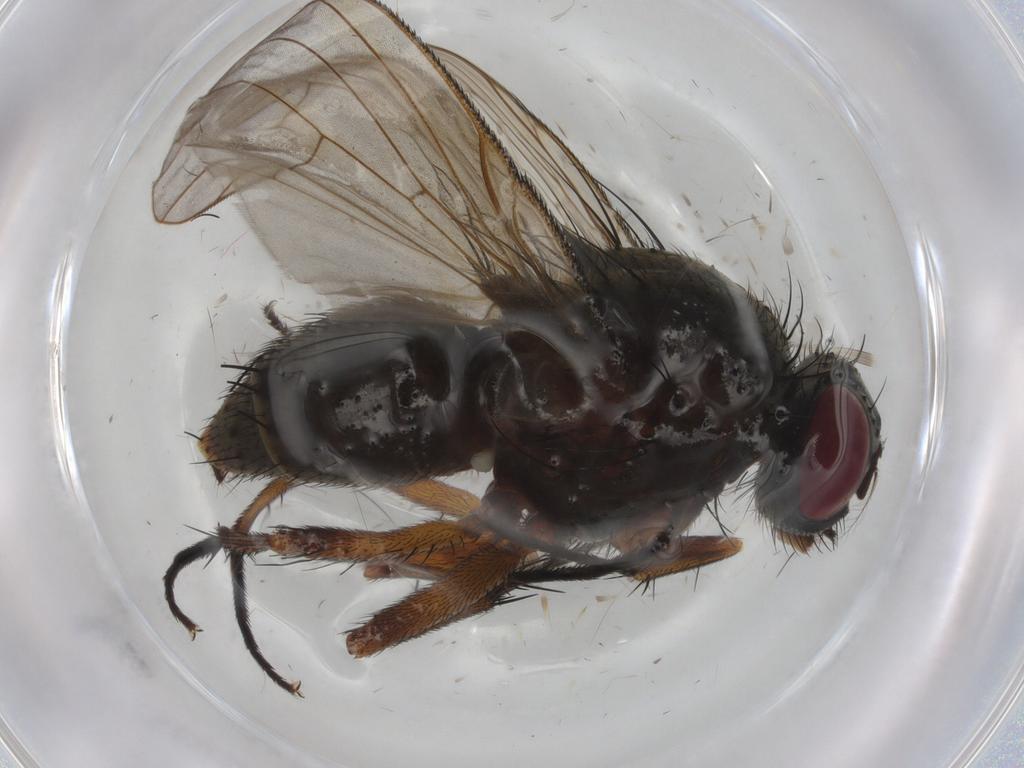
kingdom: Animalia
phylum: Arthropoda
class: Insecta
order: Diptera
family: Muscidae
